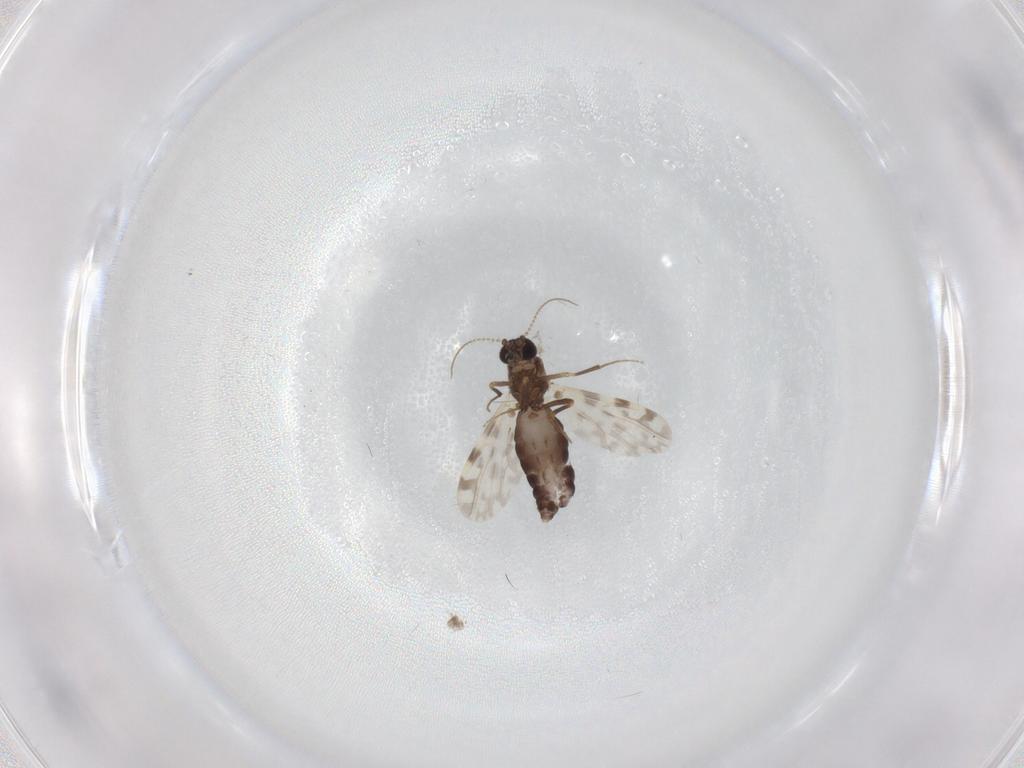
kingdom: Animalia
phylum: Arthropoda
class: Insecta
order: Diptera
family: Ceratopogonidae
